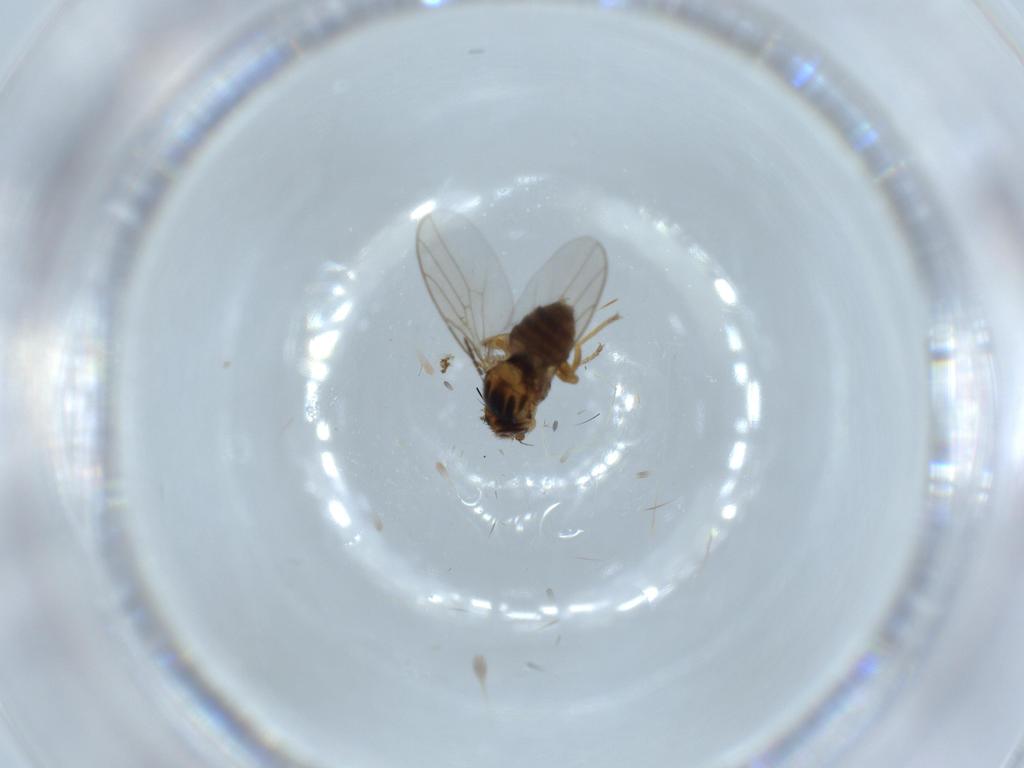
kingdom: Animalia
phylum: Arthropoda
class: Insecta
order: Diptera
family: Chloropidae
